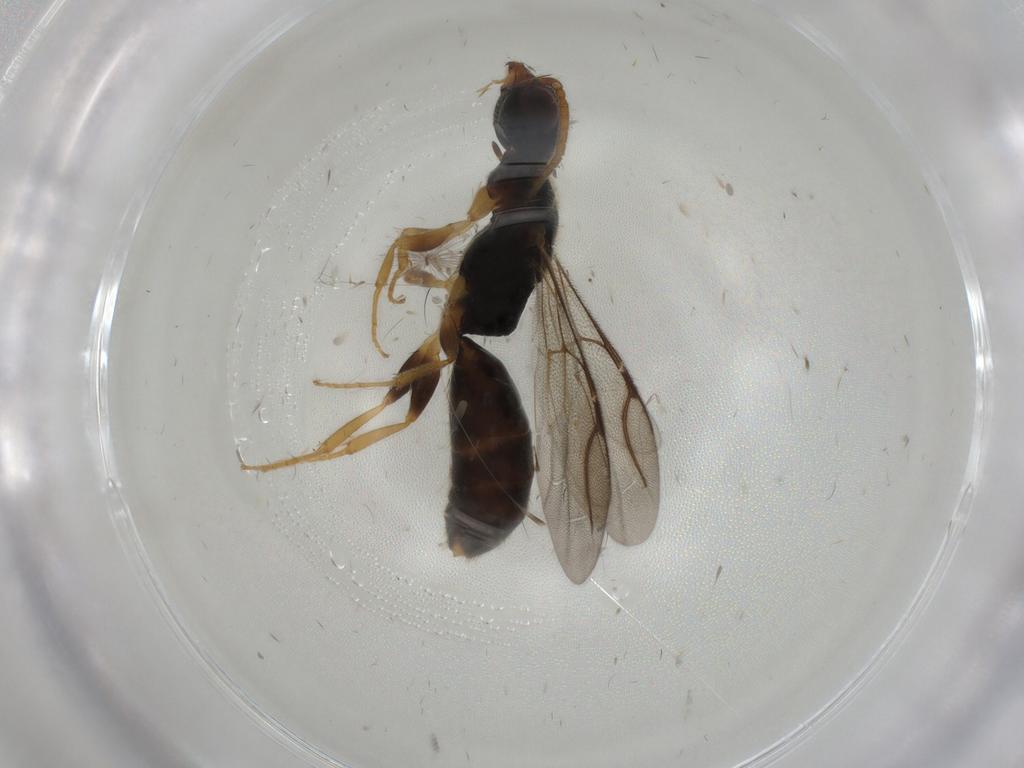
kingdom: Animalia
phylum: Arthropoda
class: Insecta
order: Hymenoptera
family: Bethylidae
